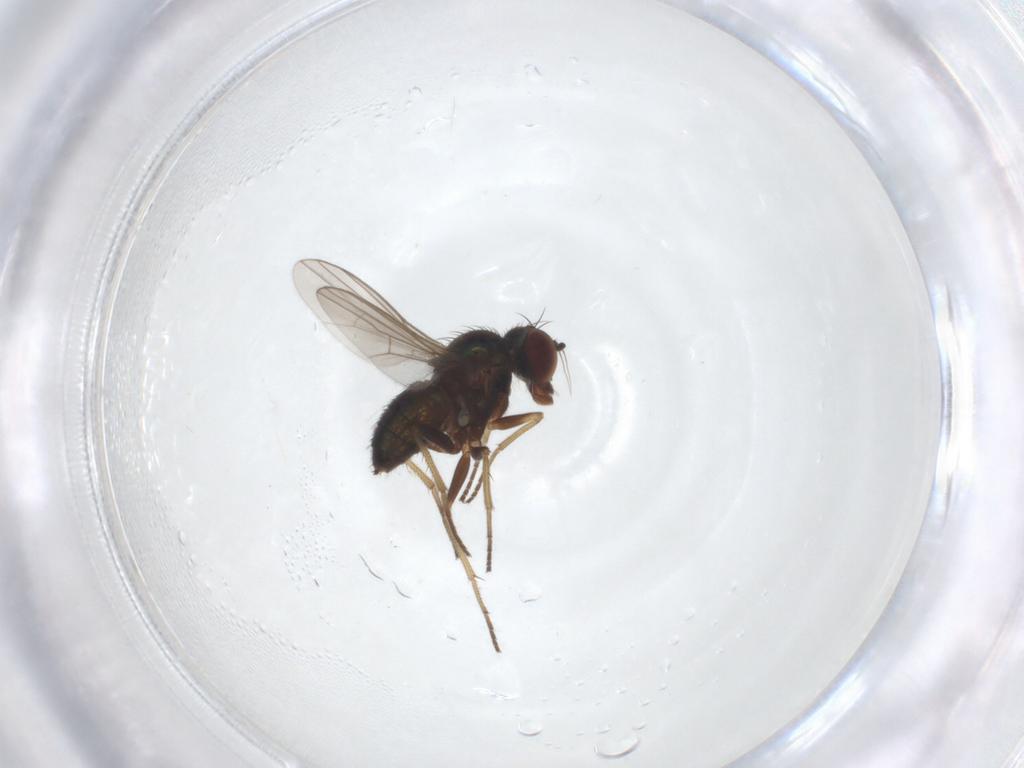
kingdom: Animalia
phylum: Arthropoda
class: Insecta
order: Diptera
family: Dolichopodidae
